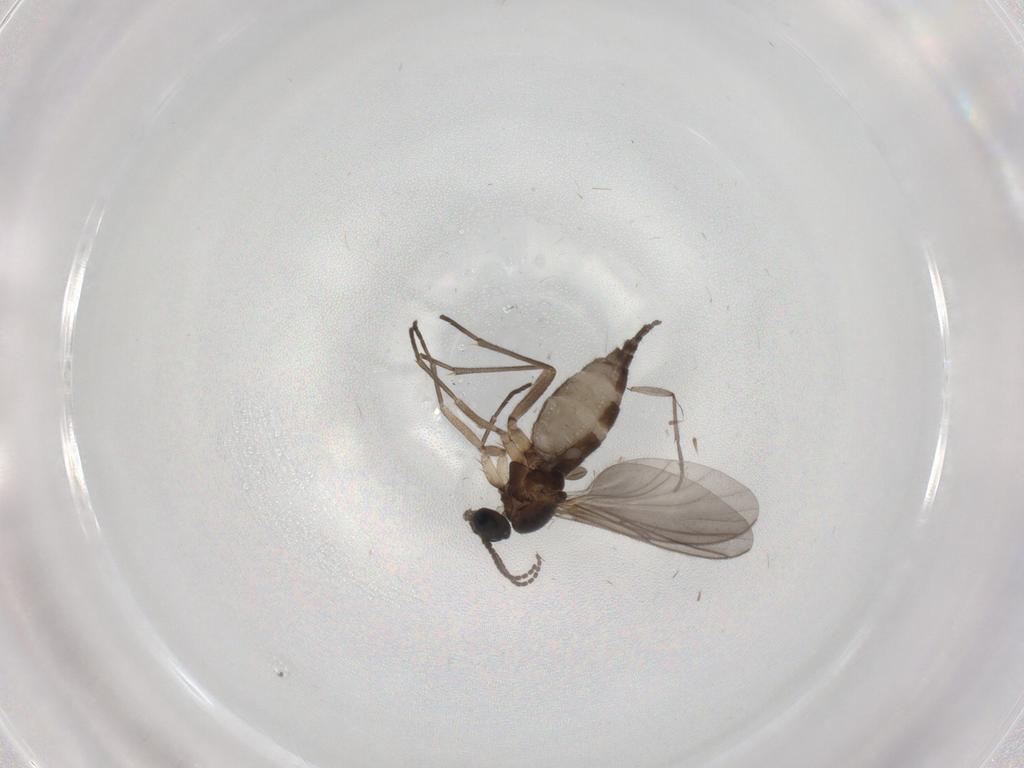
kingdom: Animalia
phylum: Arthropoda
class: Insecta
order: Diptera
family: Sciaridae
